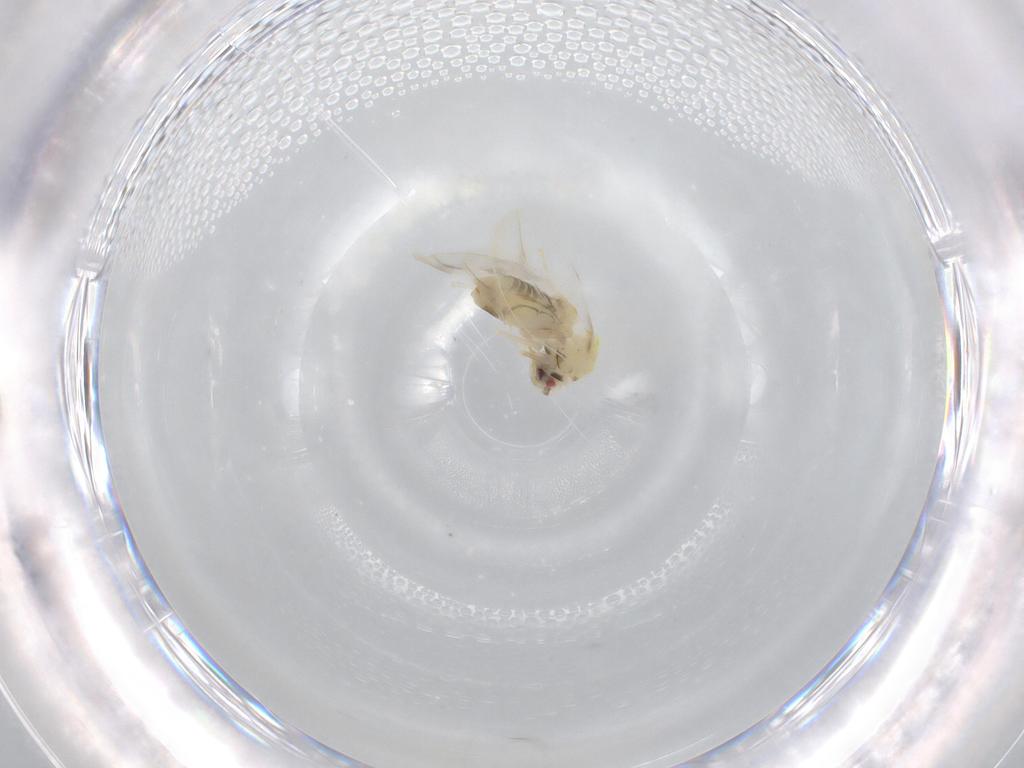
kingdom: Animalia
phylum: Arthropoda
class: Insecta
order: Hemiptera
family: Aleyrodidae
